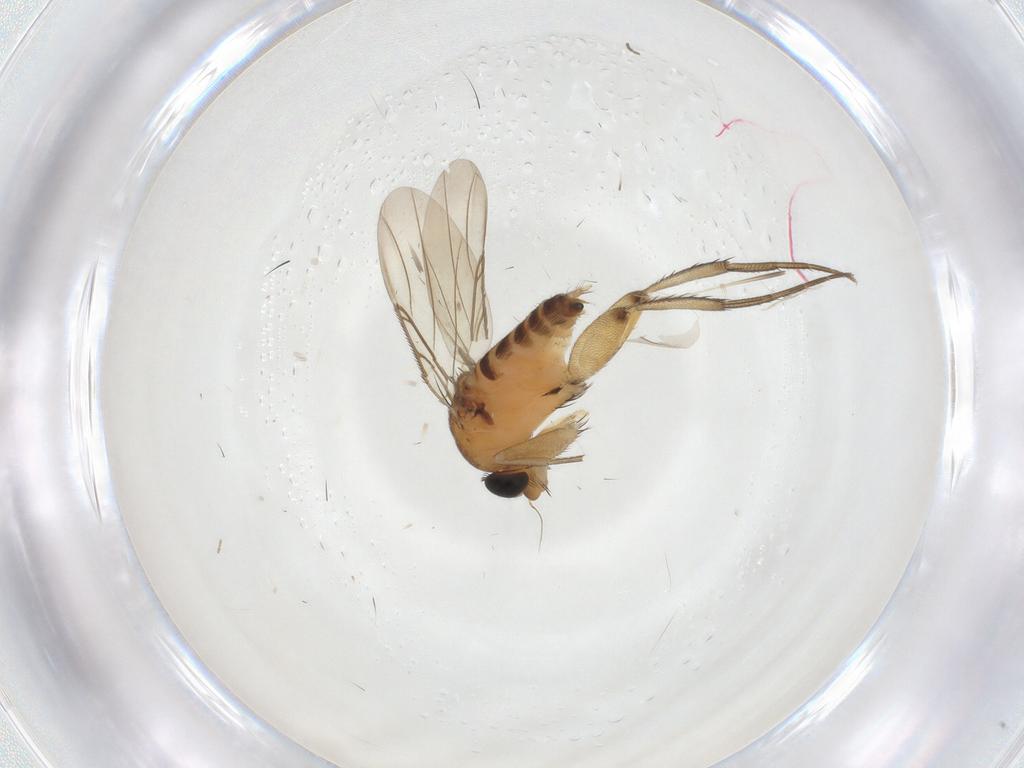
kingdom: Animalia
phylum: Arthropoda
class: Insecta
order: Diptera
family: Phoridae
